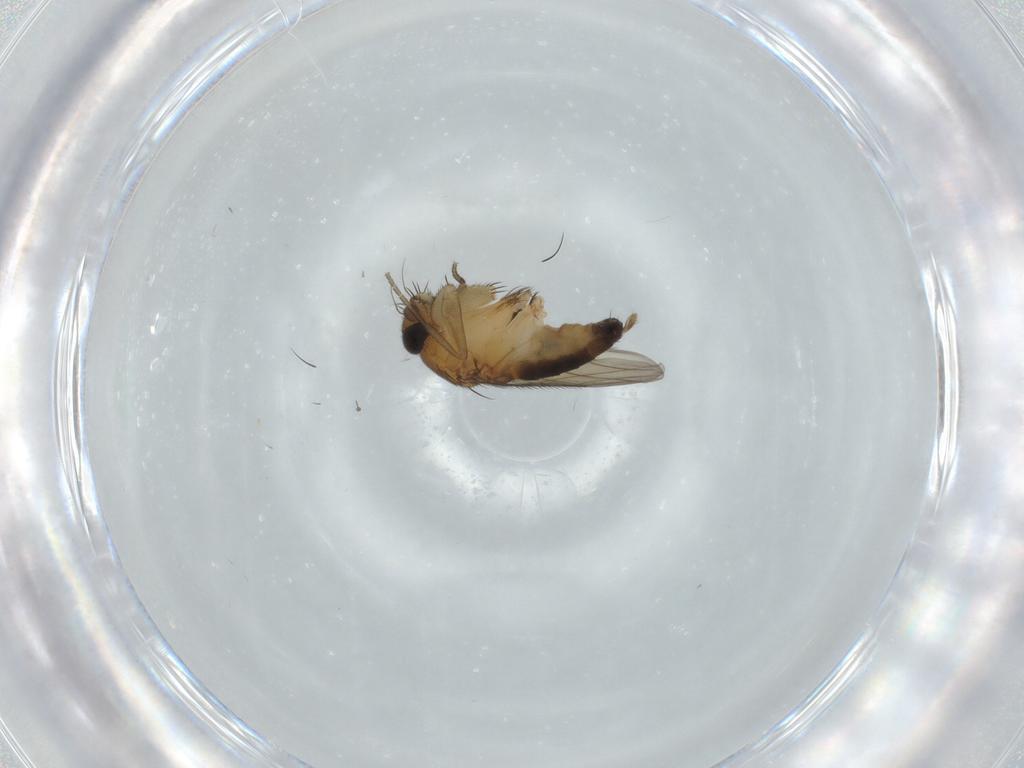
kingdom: Animalia
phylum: Arthropoda
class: Insecta
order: Diptera
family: Phoridae
